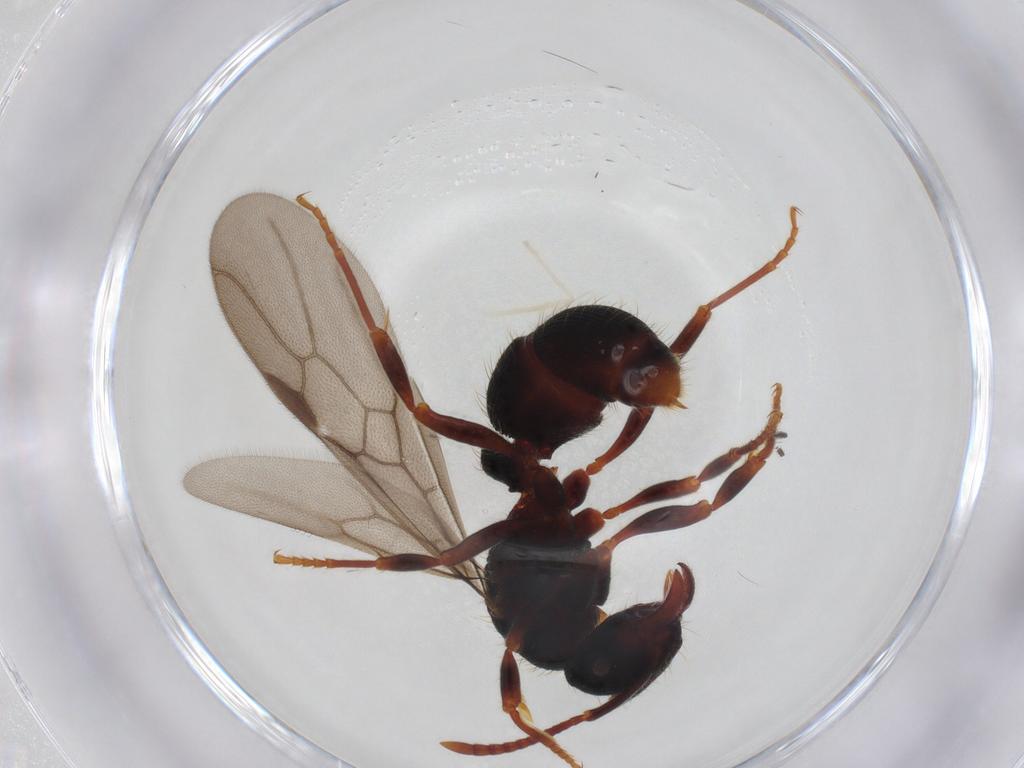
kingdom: Animalia
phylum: Arthropoda
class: Insecta
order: Hymenoptera
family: Formicidae
